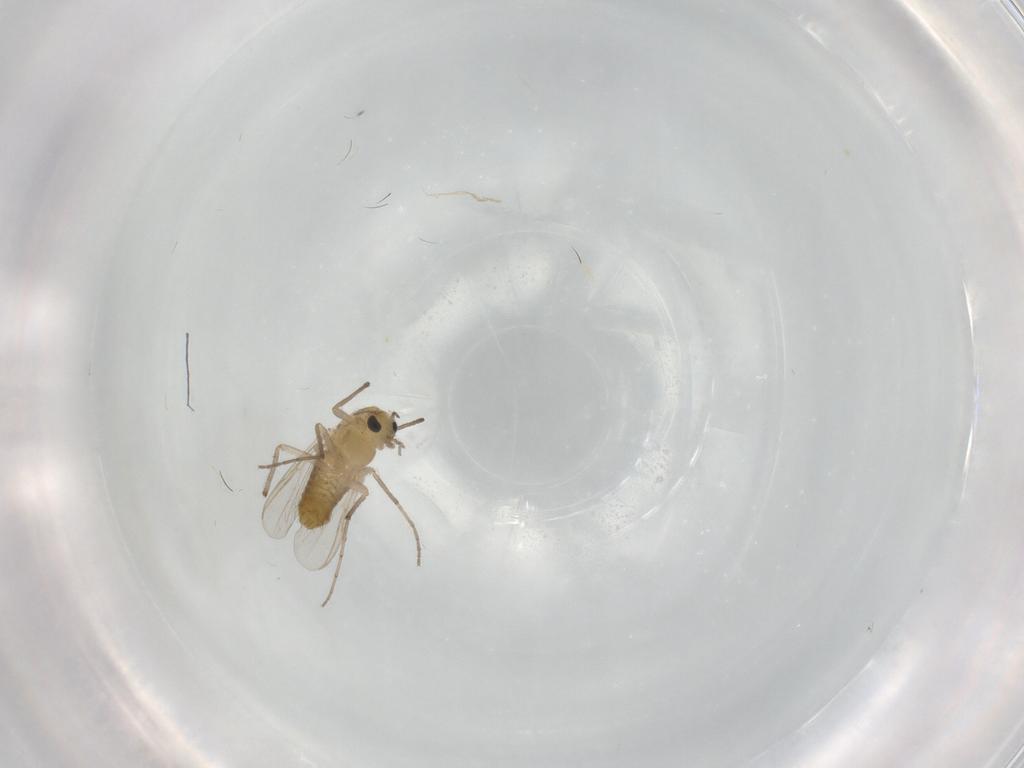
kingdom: Animalia
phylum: Arthropoda
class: Insecta
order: Diptera
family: Chironomidae
